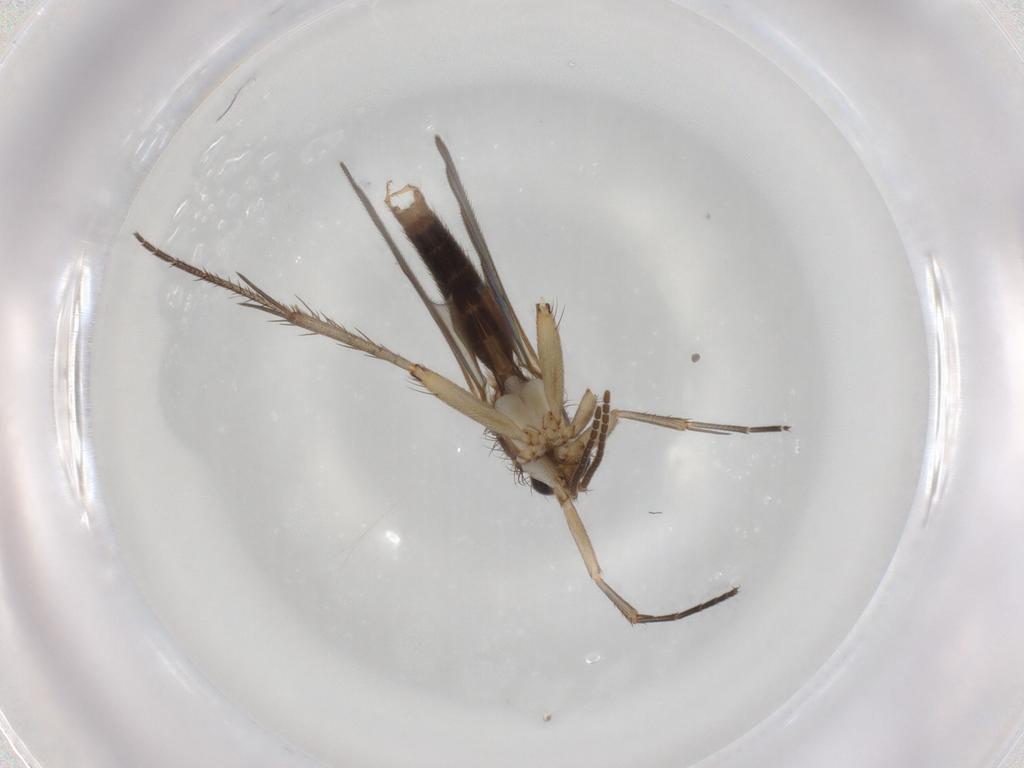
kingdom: Animalia
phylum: Arthropoda
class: Insecta
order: Diptera
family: Mycetophilidae
